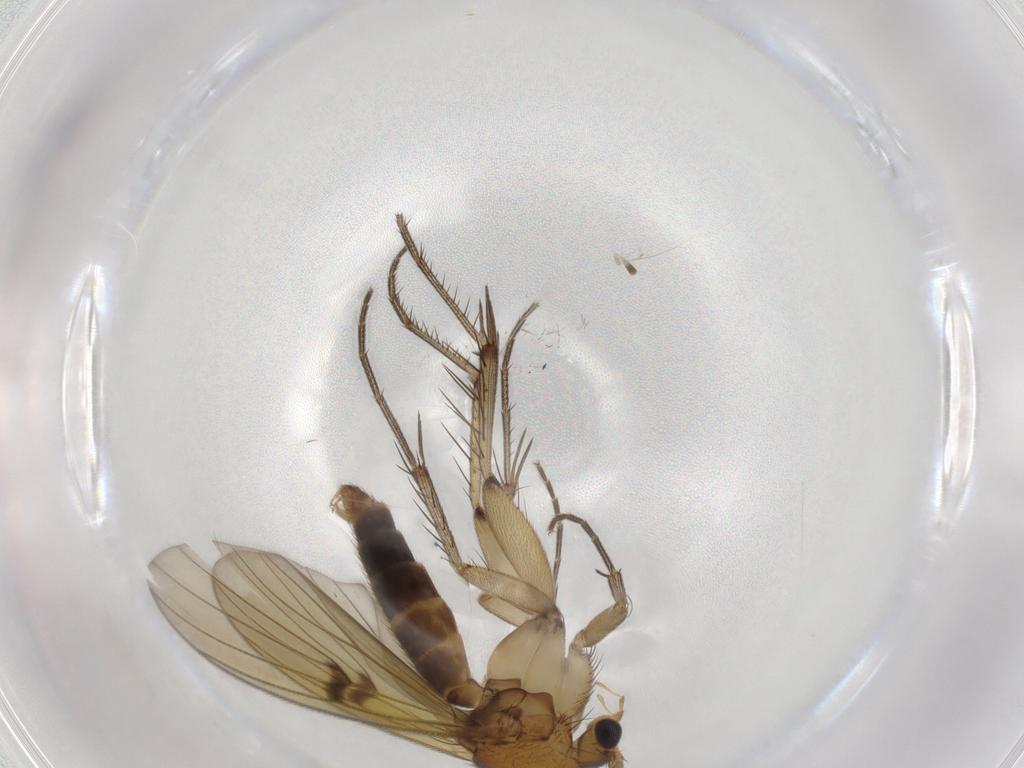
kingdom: Animalia
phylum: Arthropoda
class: Insecta
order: Diptera
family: Mycetophilidae
